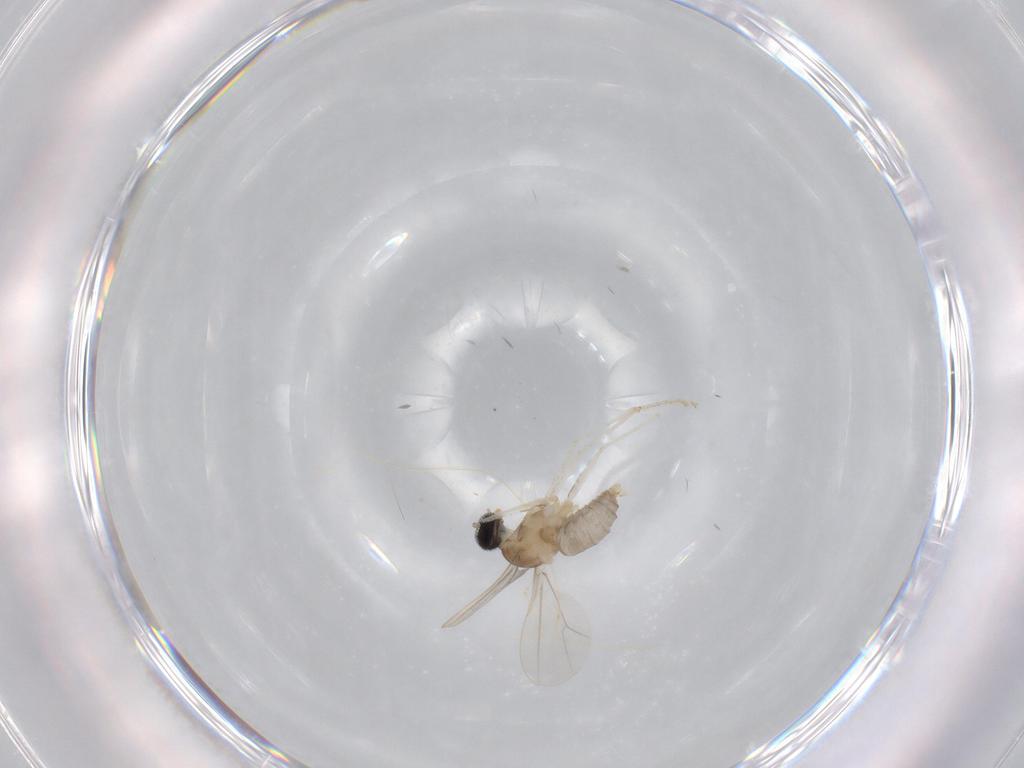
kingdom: Animalia
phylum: Arthropoda
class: Insecta
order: Diptera
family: Cecidomyiidae
